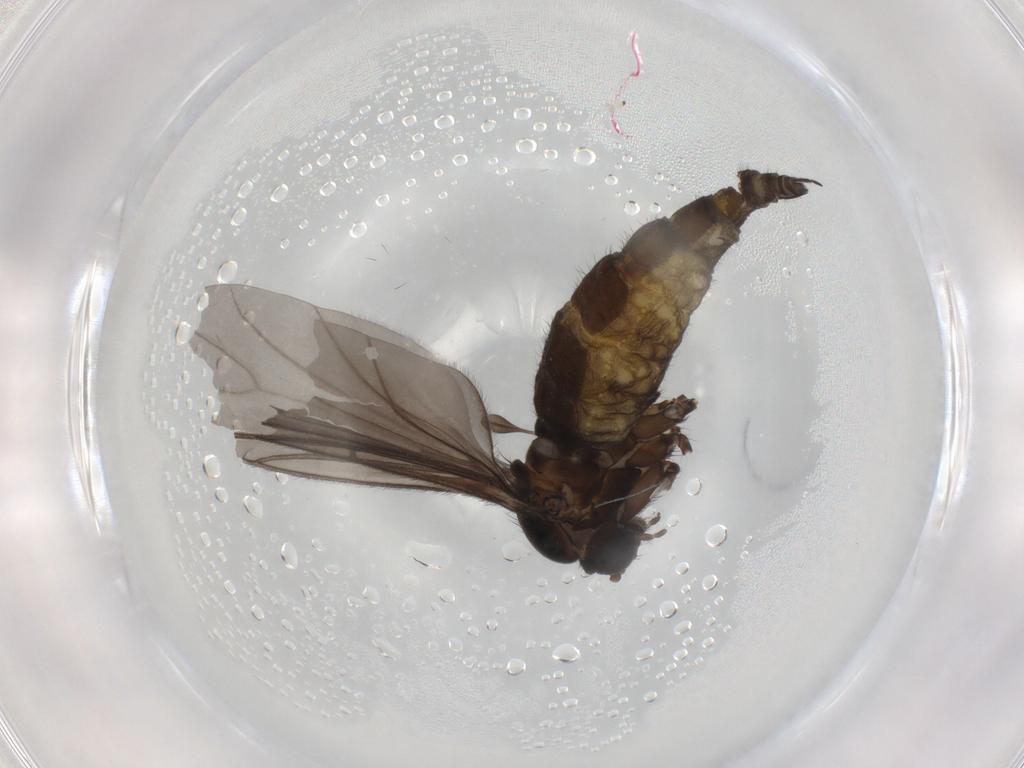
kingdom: Animalia
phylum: Arthropoda
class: Insecta
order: Diptera
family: Sciaridae
